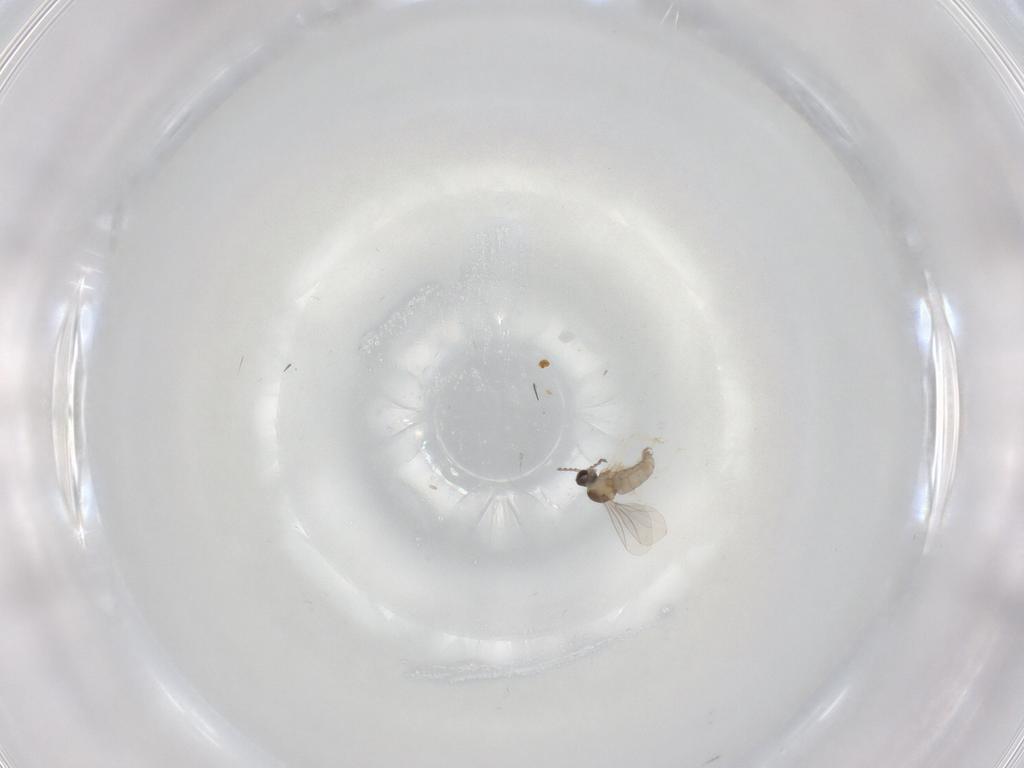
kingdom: Animalia
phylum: Arthropoda
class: Insecta
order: Diptera
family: Cecidomyiidae
